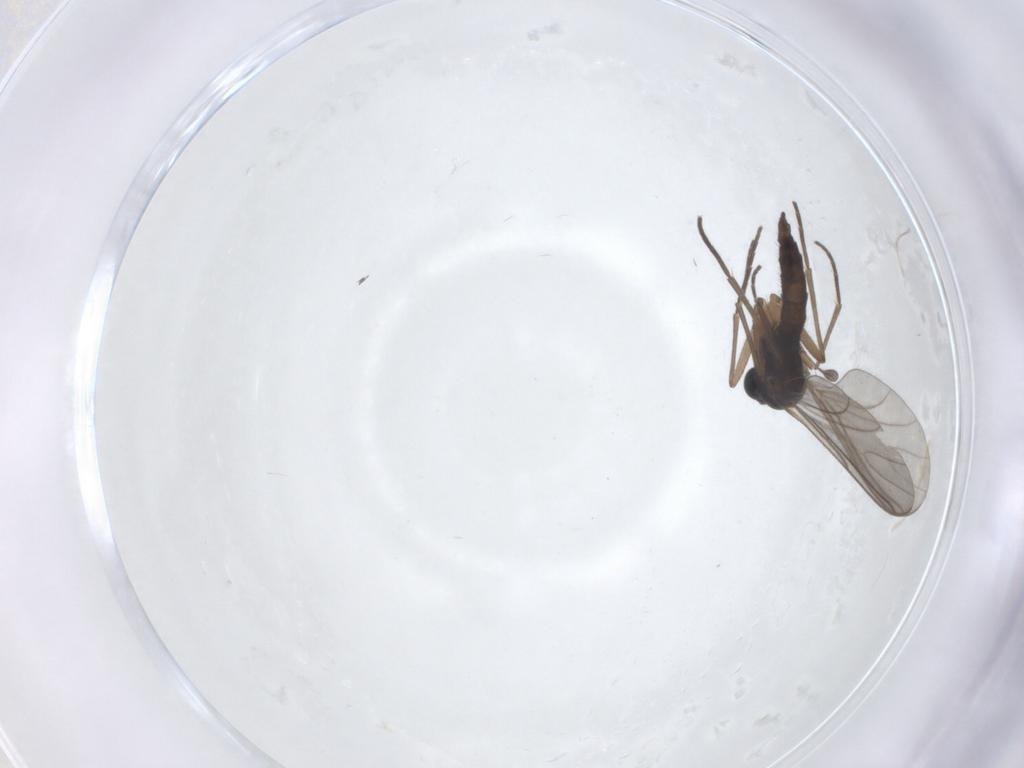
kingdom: Animalia
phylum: Arthropoda
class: Insecta
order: Diptera
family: Sciaridae
